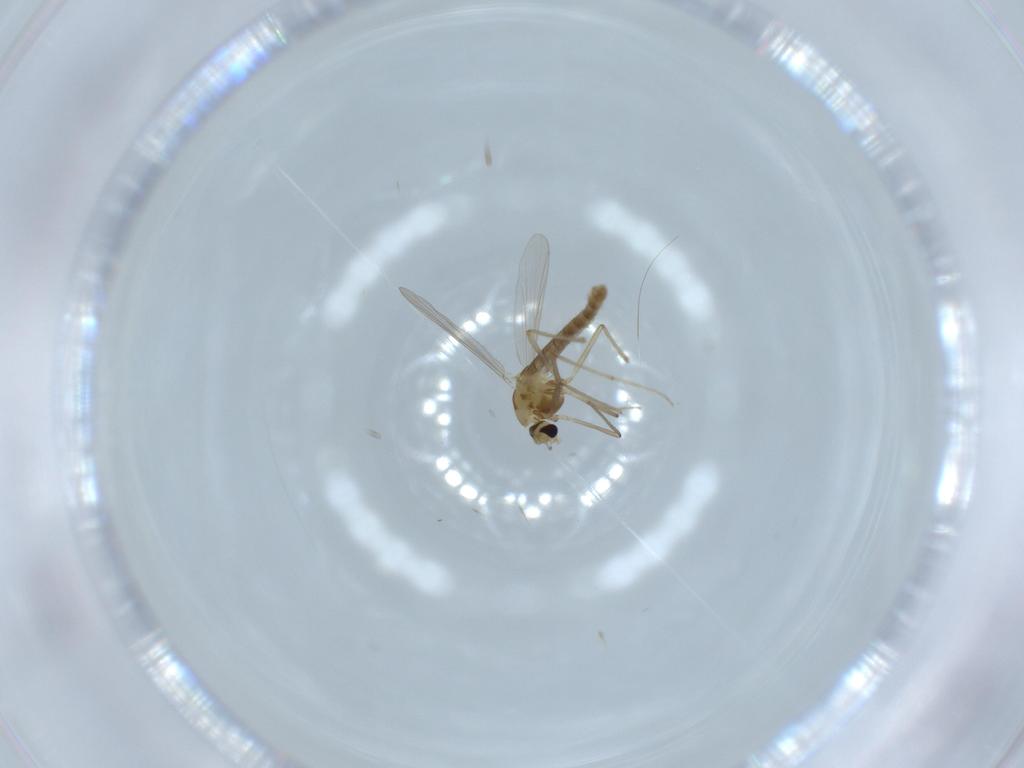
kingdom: Animalia
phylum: Arthropoda
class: Insecta
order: Diptera
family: Chironomidae
